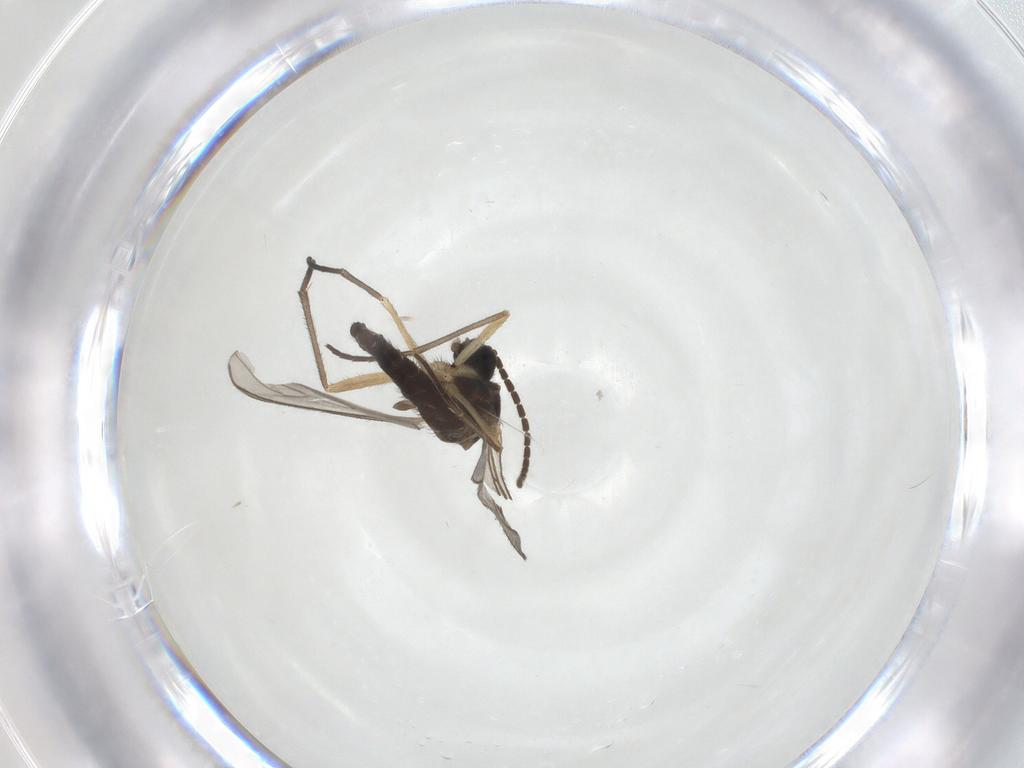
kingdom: Animalia
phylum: Arthropoda
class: Insecta
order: Diptera
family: Sciaridae
